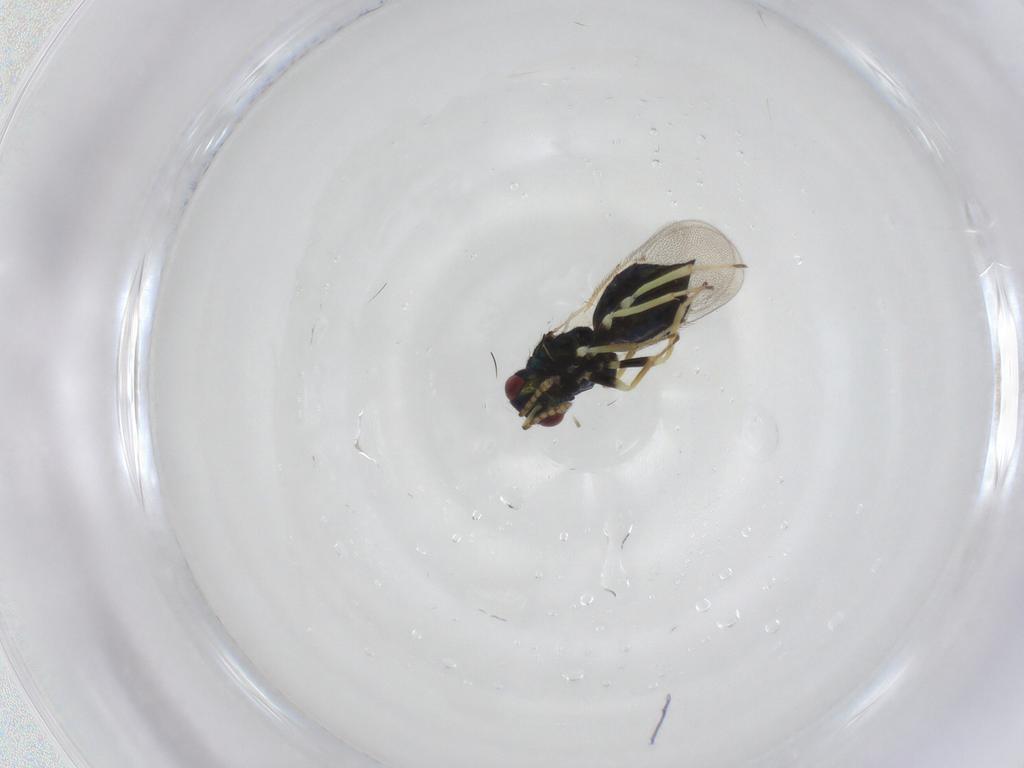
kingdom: Animalia
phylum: Arthropoda
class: Insecta
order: Hymenoptera
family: Eulophidae
